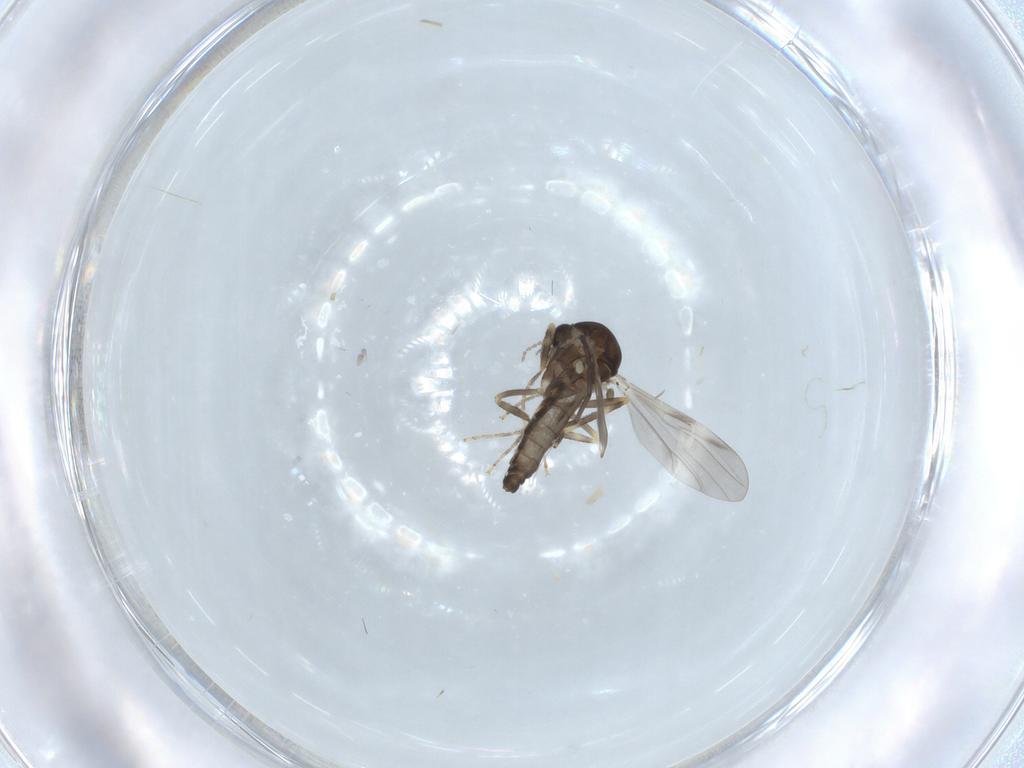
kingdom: Animalia
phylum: Arthropoda
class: Insecta
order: Diptera
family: Ceratopogonidae
